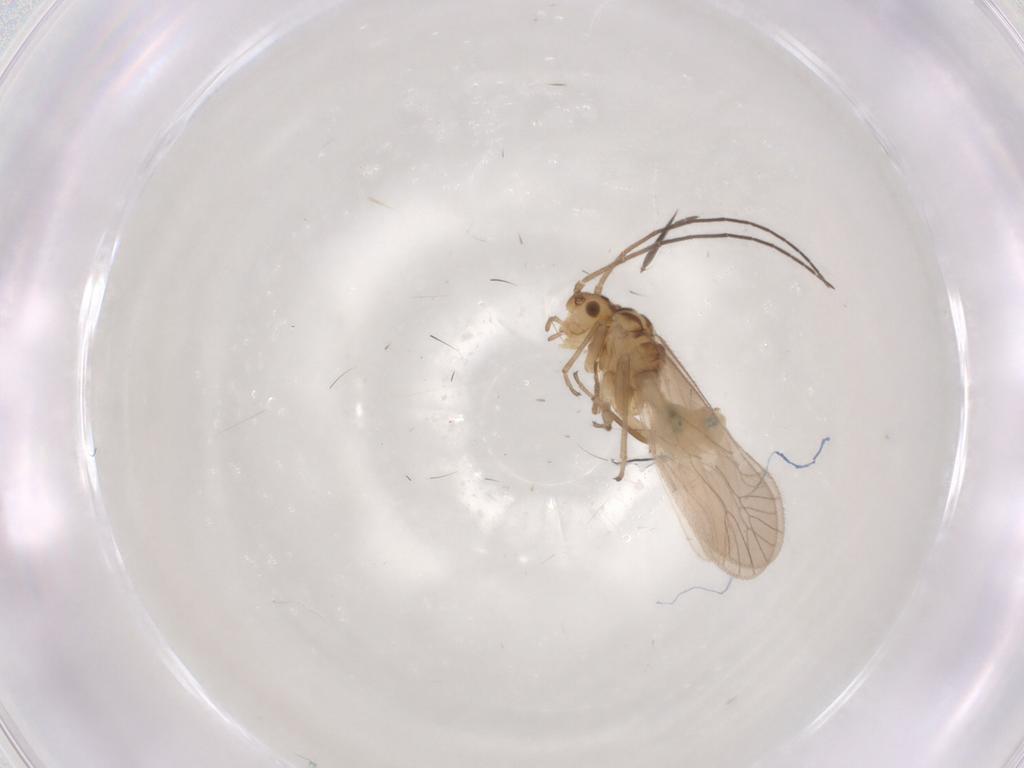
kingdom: Animalia
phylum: Arthropoda
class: Insecta
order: Psocodea
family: Caeciliusidae
